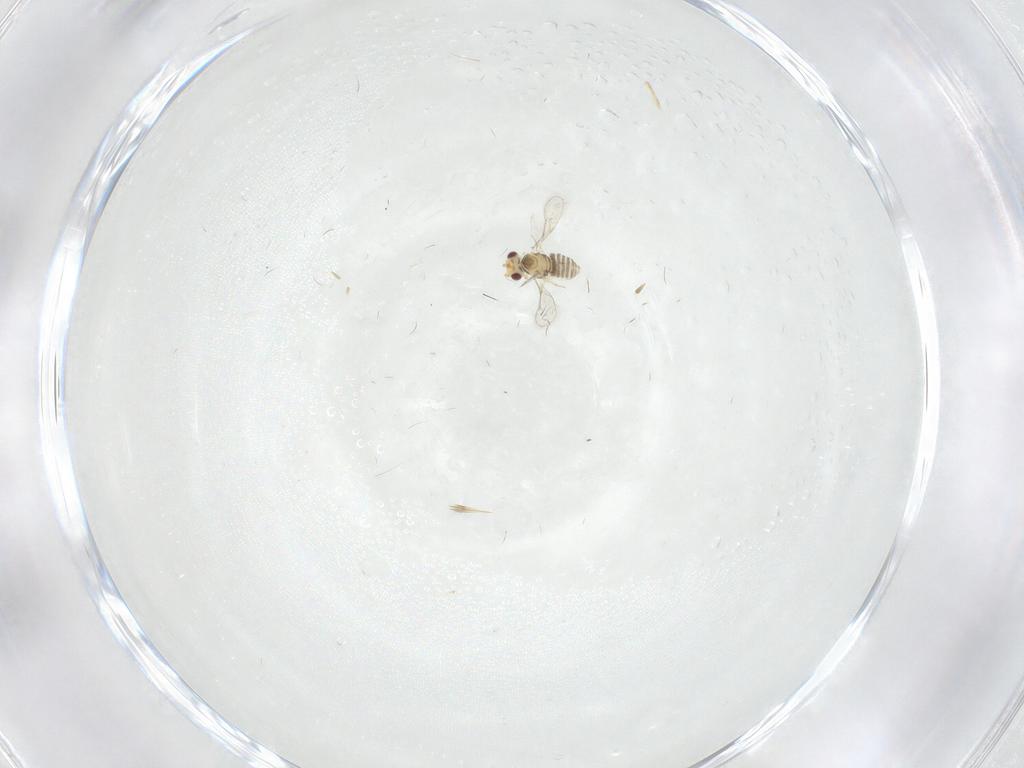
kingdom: Animalia
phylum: Arthropoda
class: Insecta
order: Hymenoptera
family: Aphelinidae
